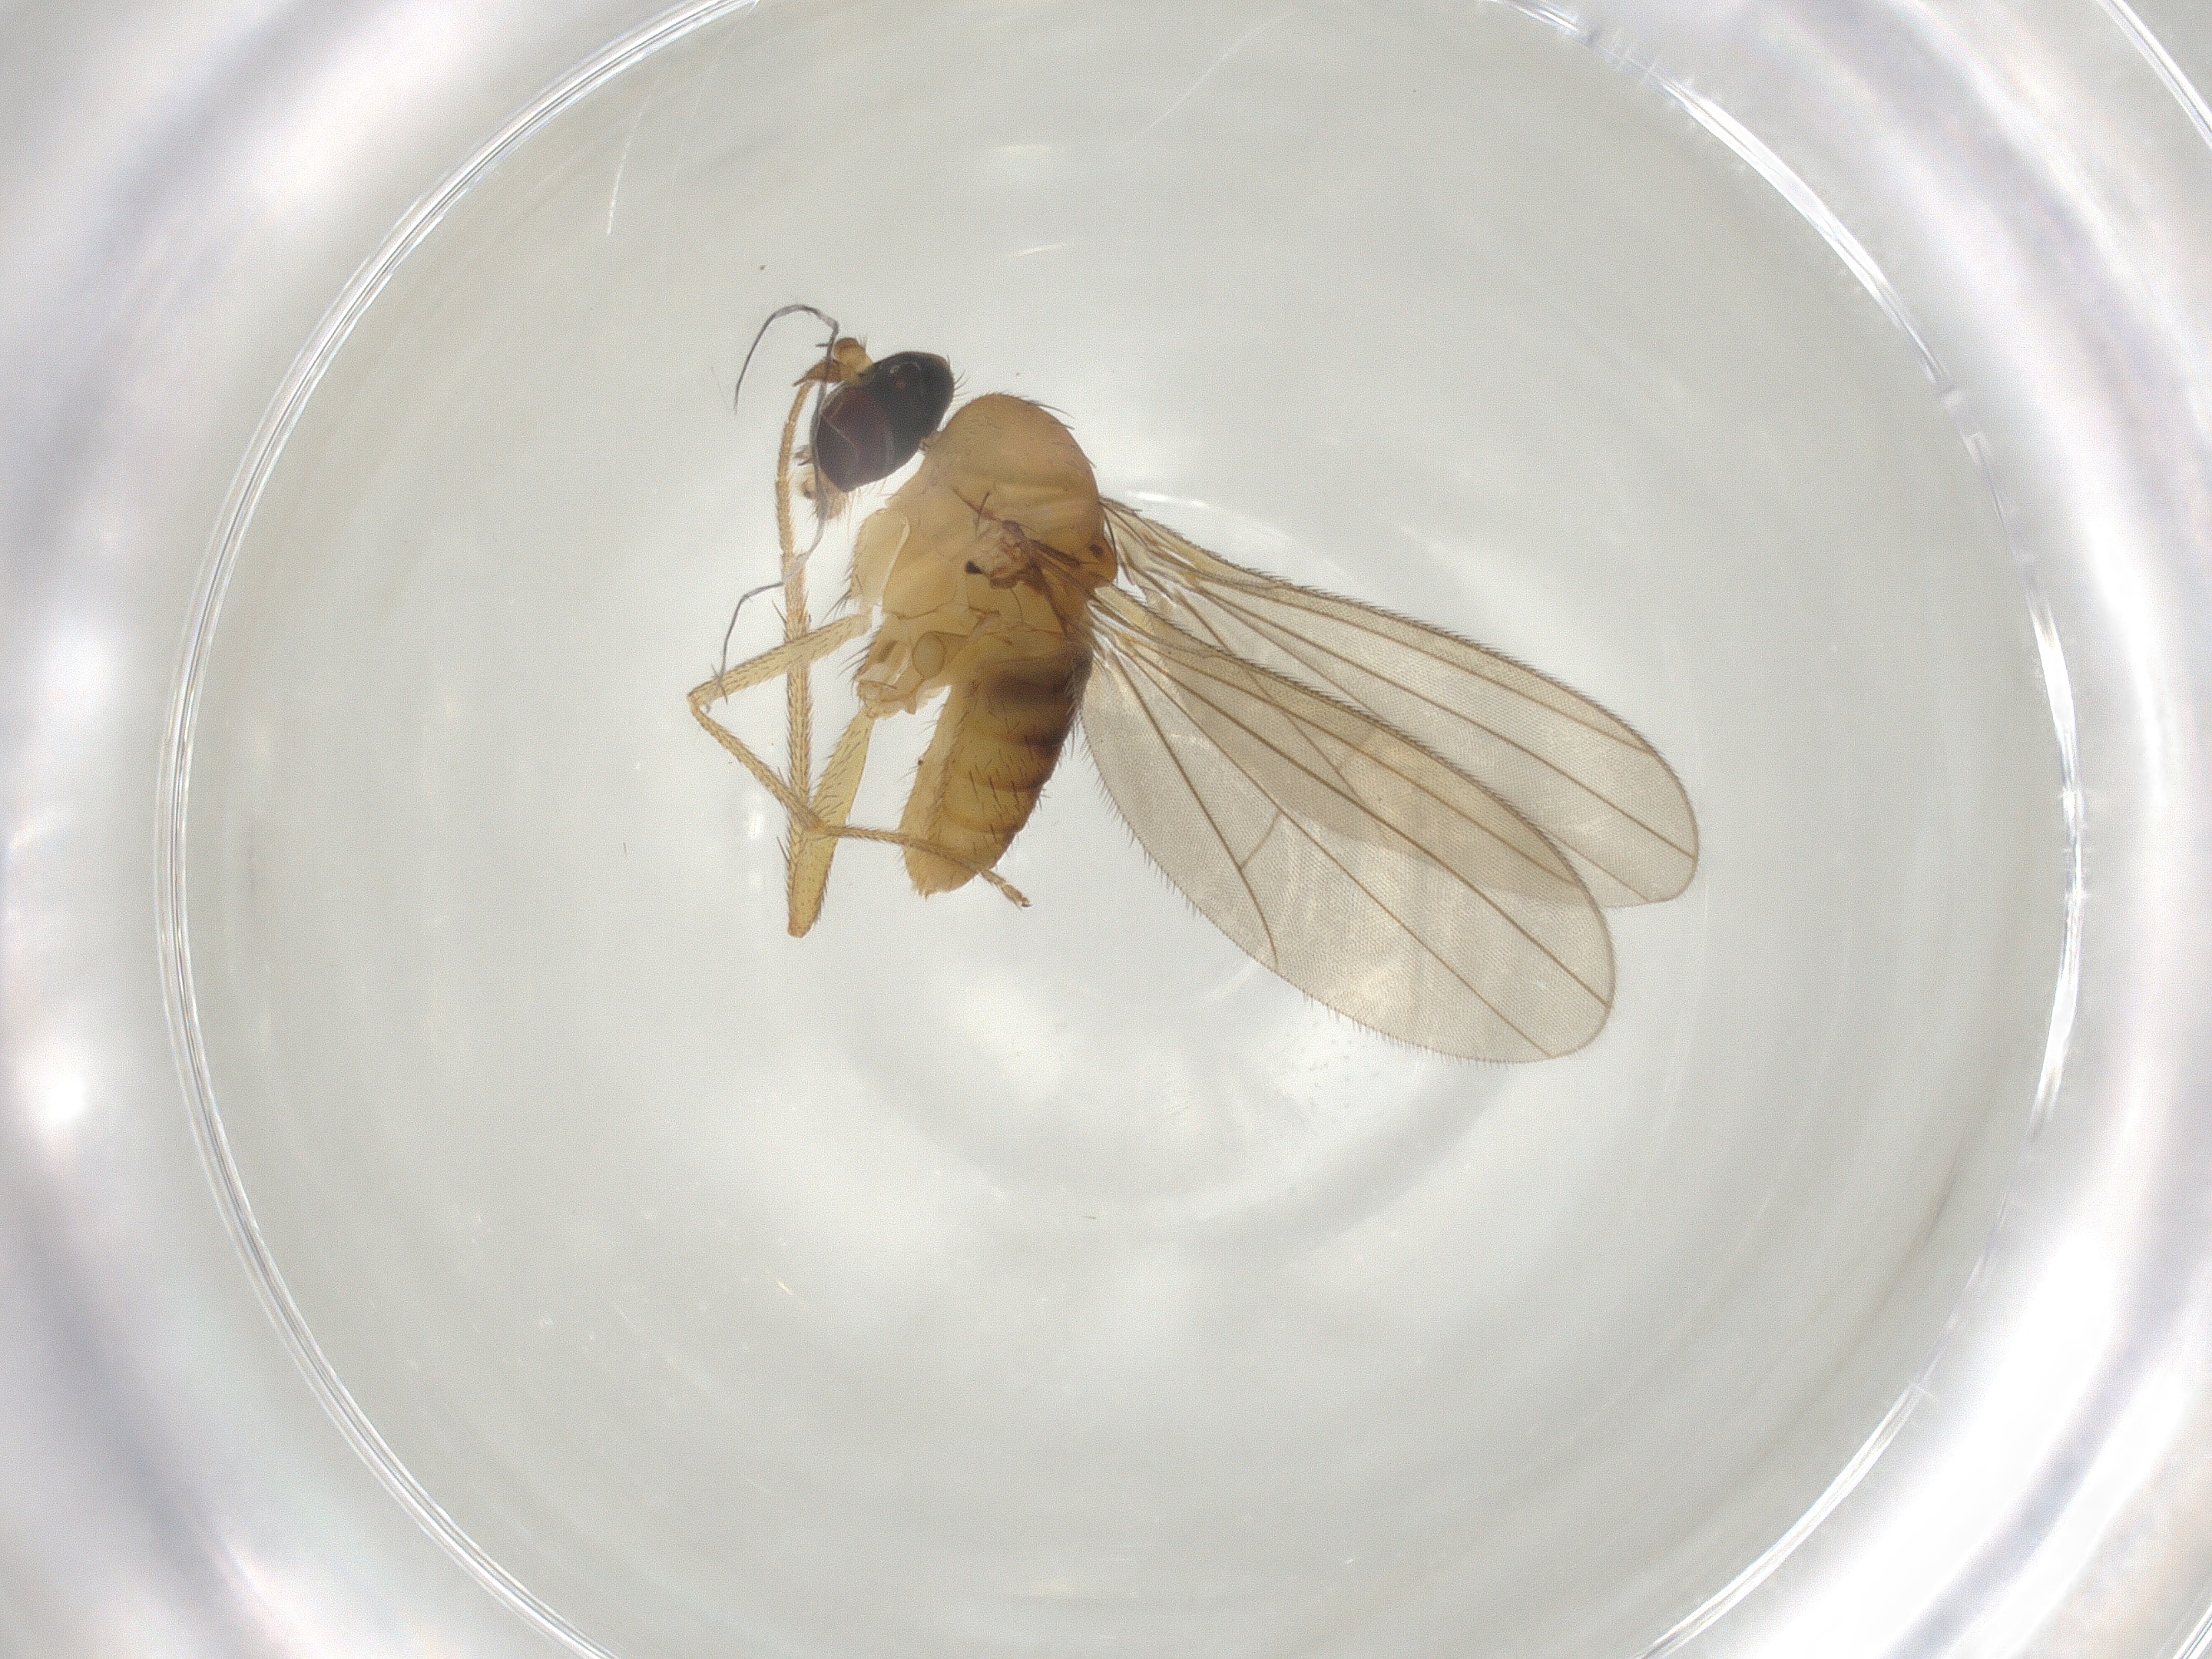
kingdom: Animalia
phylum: Arthropoda
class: Insecta
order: Diptera
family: Dolichopodidae
